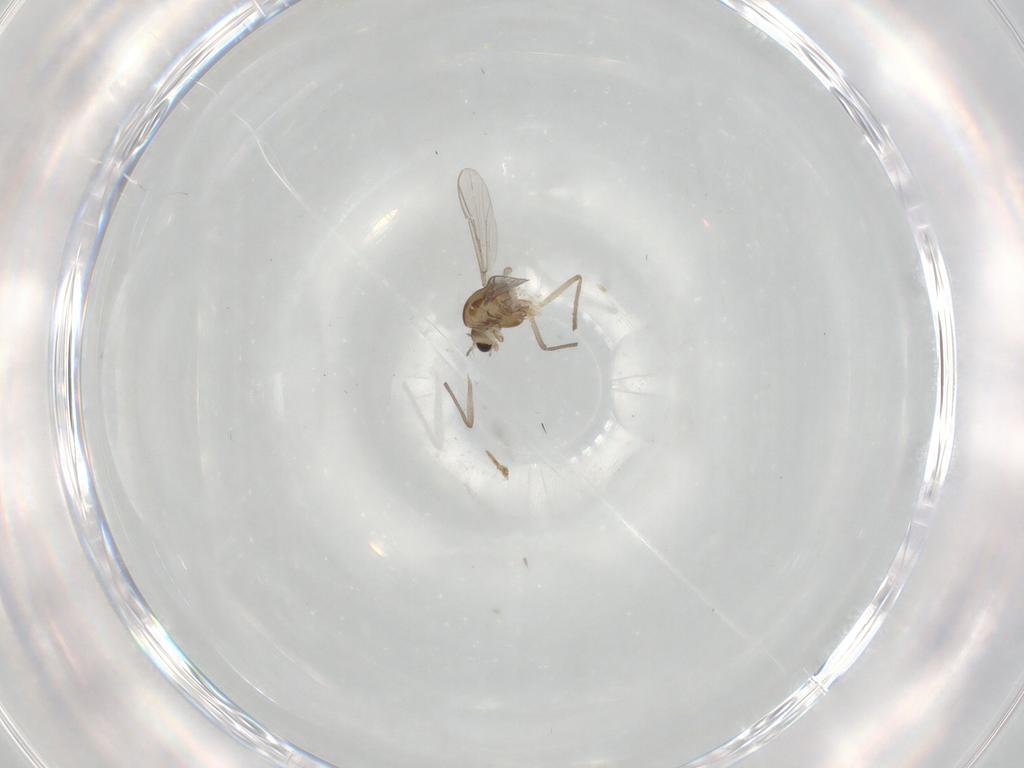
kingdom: Animalia
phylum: Arthropoda
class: Insecta
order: Diptera
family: Chironomidae
